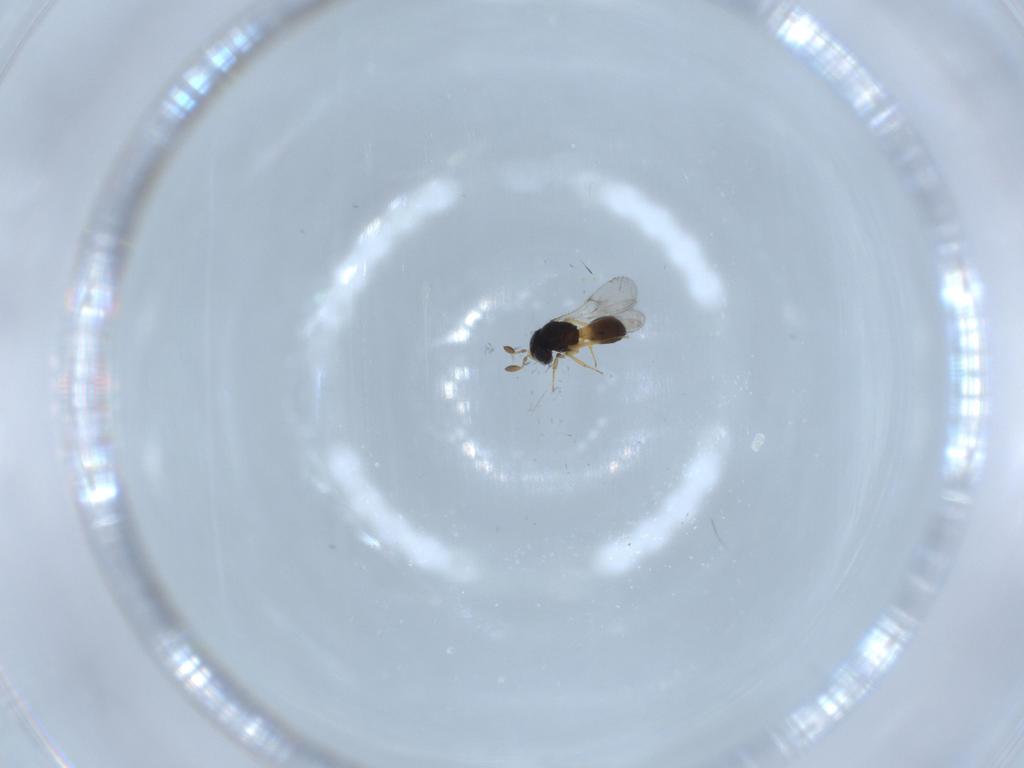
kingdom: Animalia
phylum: Arthropoda
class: Insecta
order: Hymenoptera
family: Scelionidae
